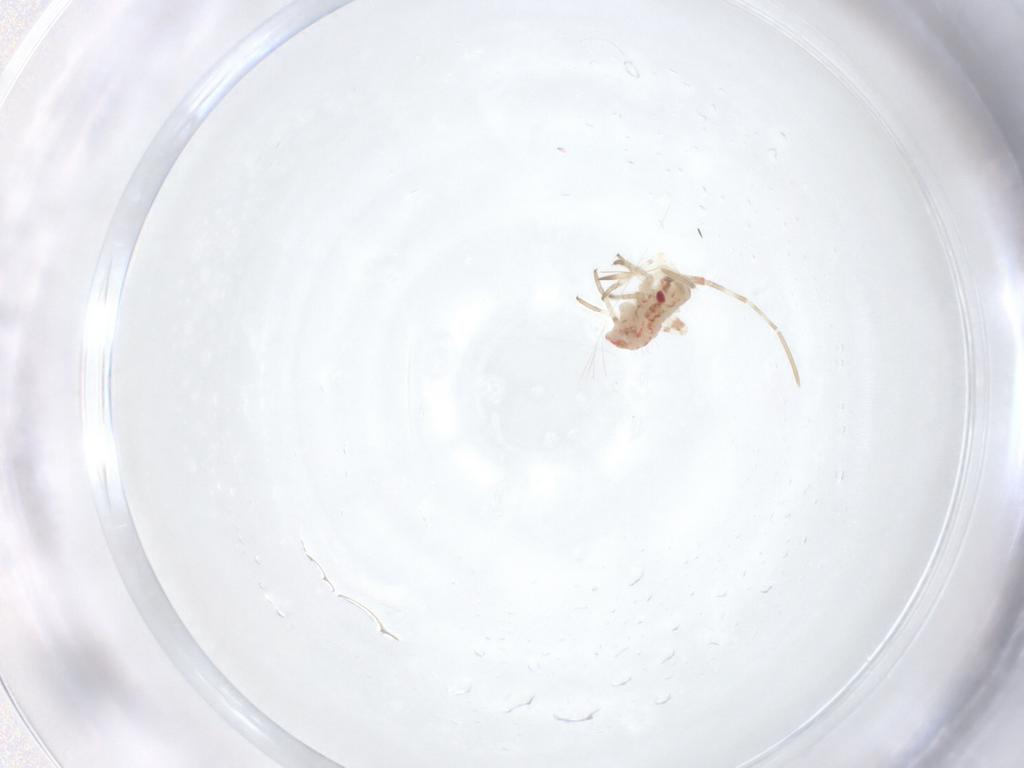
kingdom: Animalia
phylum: Arthropoda
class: Insecta
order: Hemiptera
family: Miridae
